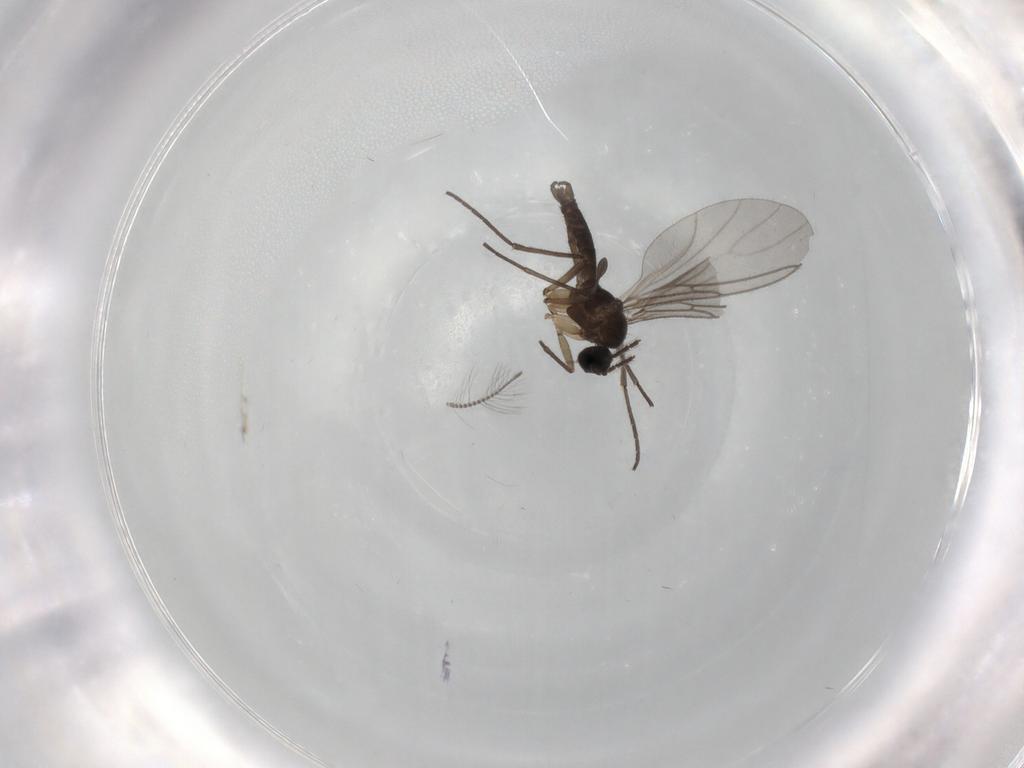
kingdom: Animalia
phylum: Arthropoda
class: Insecta
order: Diptera
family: Sciaridae
